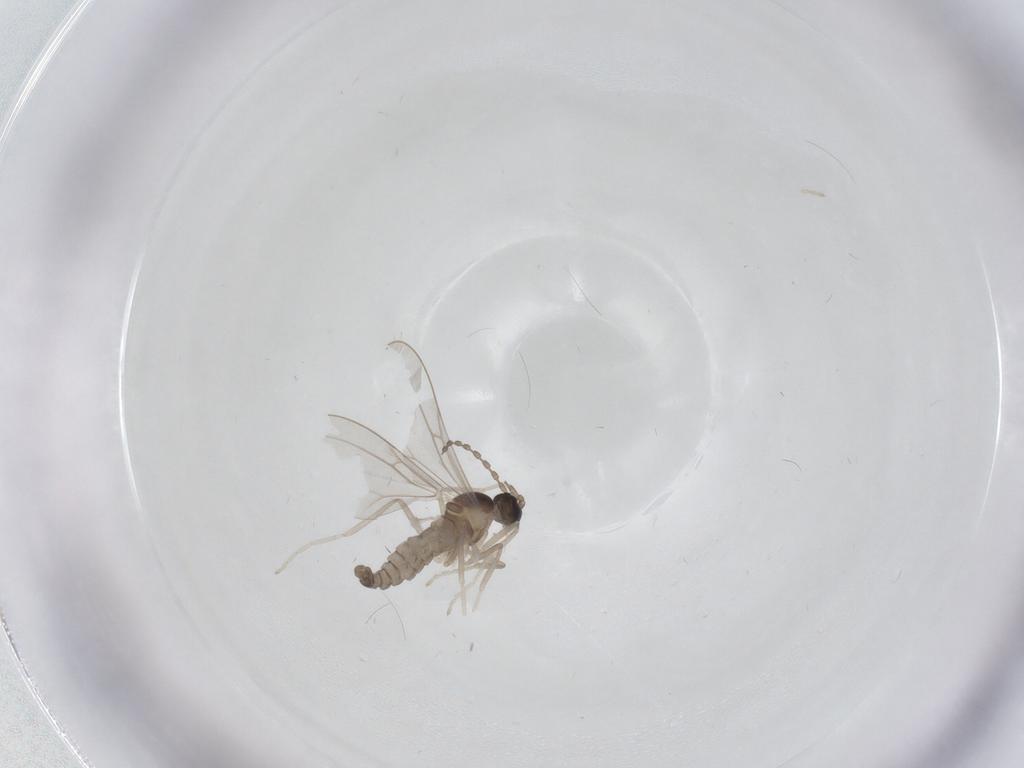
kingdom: Animalia
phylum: Arthropoda
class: Insecta
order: Diptera
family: Cecidomyiidae
